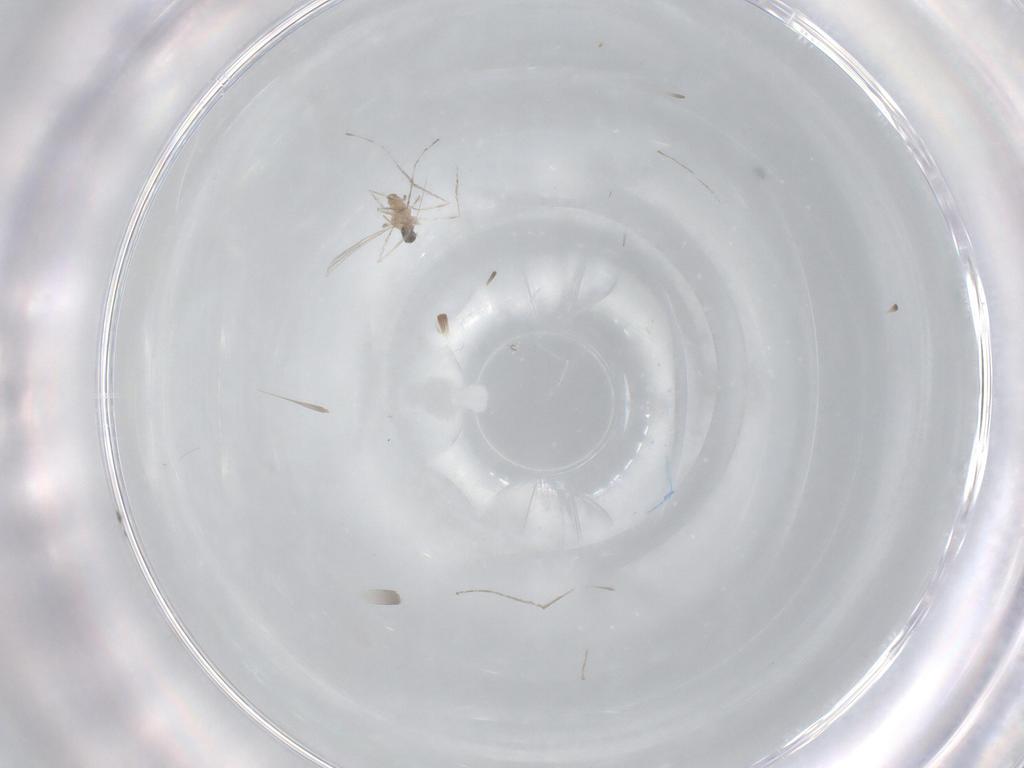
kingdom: Animalia
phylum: Arthropoda
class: Insecta
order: Diptera
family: Cecidomyiidae
